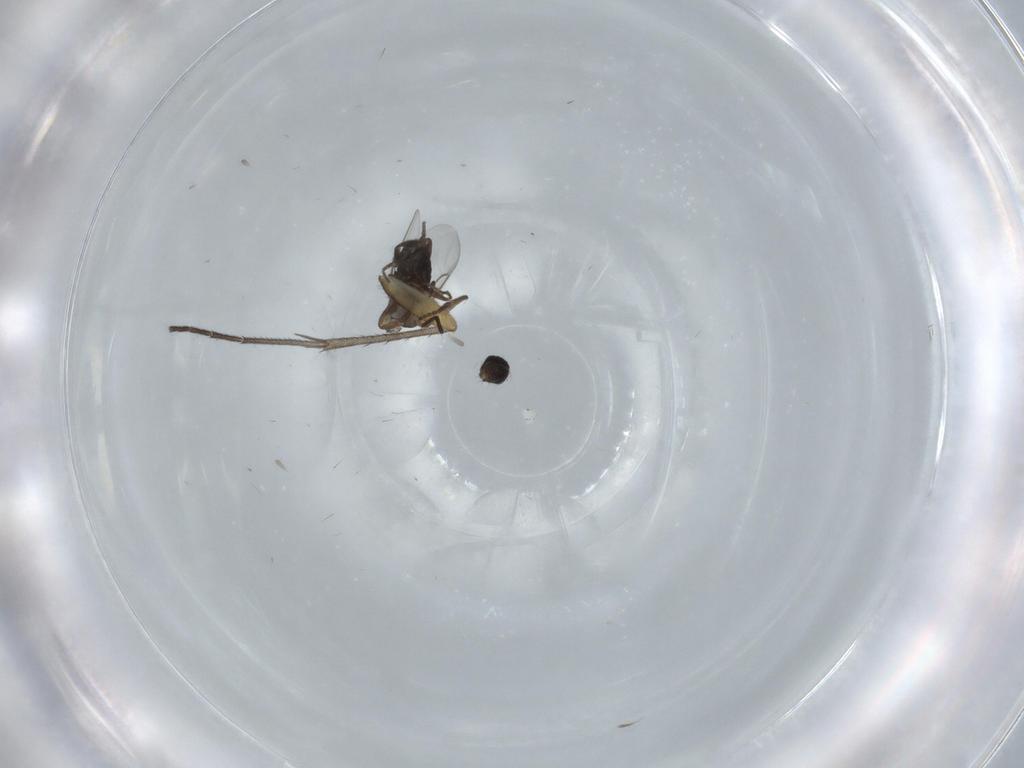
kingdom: Animalia
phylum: Arthropoda
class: Insecta
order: Diptera
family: Phoridae
